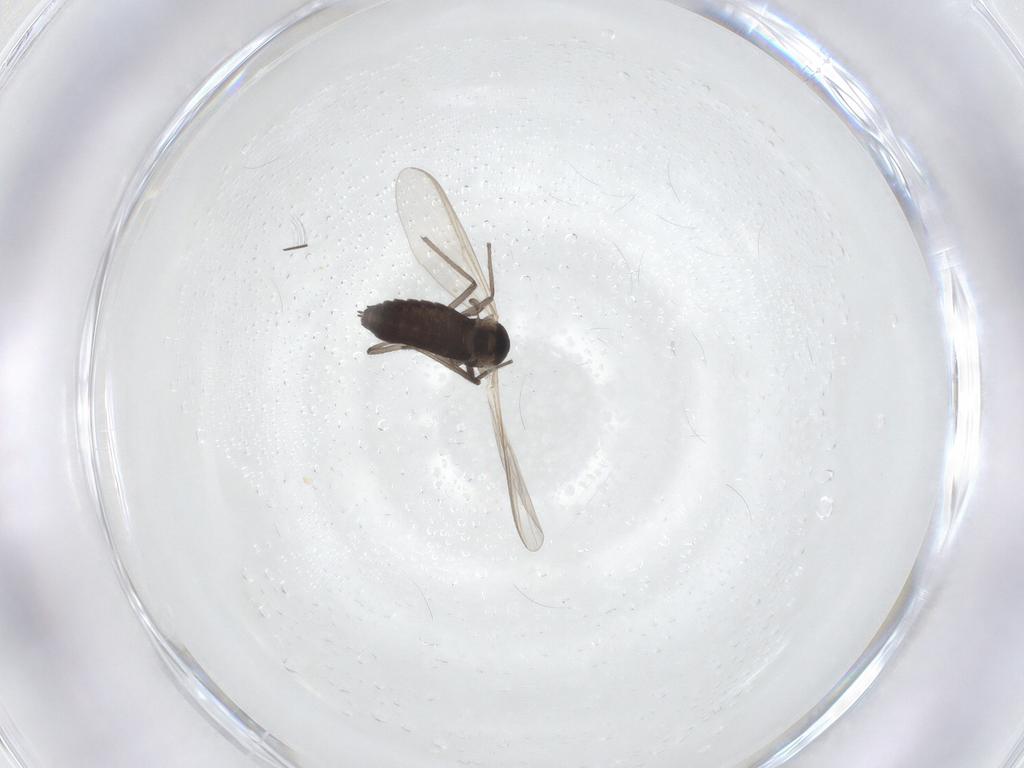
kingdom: Animalia
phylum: Arthropoda
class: Insecta
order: Diptera
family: Chironomidae
